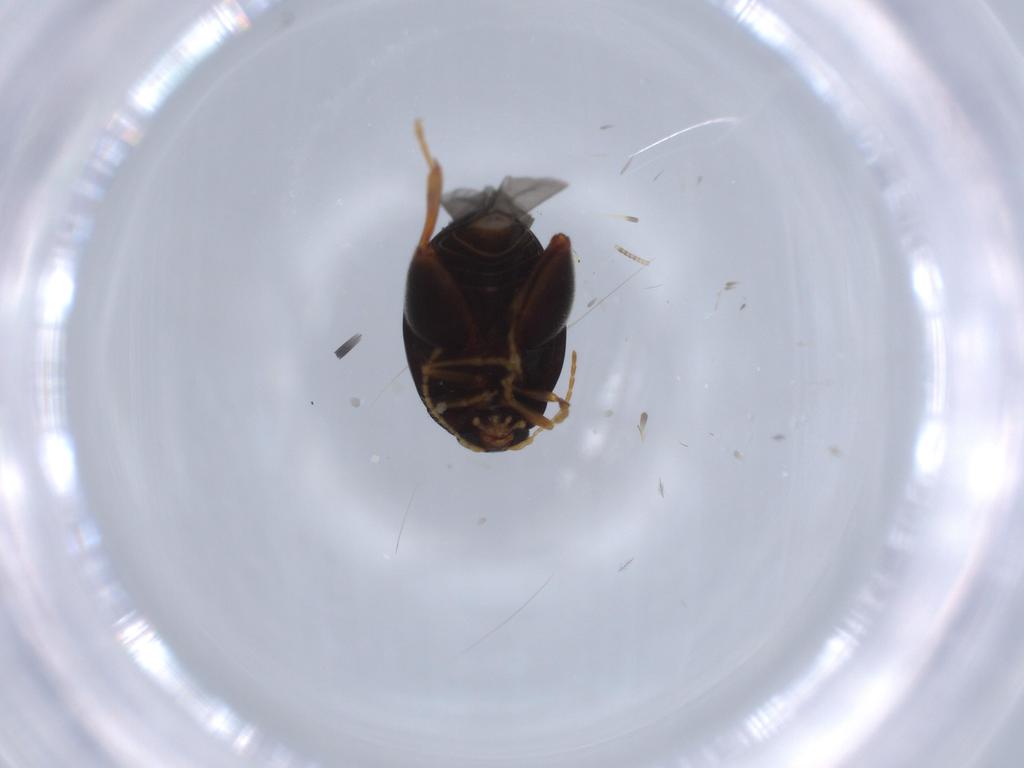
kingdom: Animalia
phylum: Arthropoda
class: Insecta
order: Coleoptera
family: Chrysomelidae
